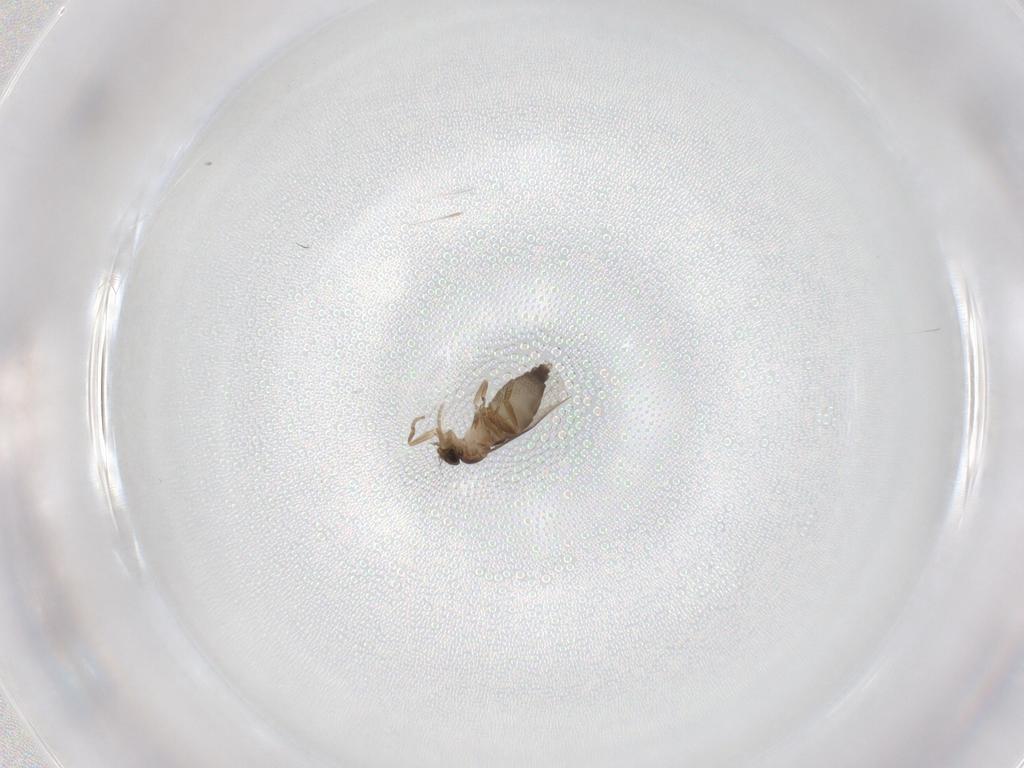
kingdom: Animalia
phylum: Arthropoda
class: Insecta
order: Diptera
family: Phoridae
